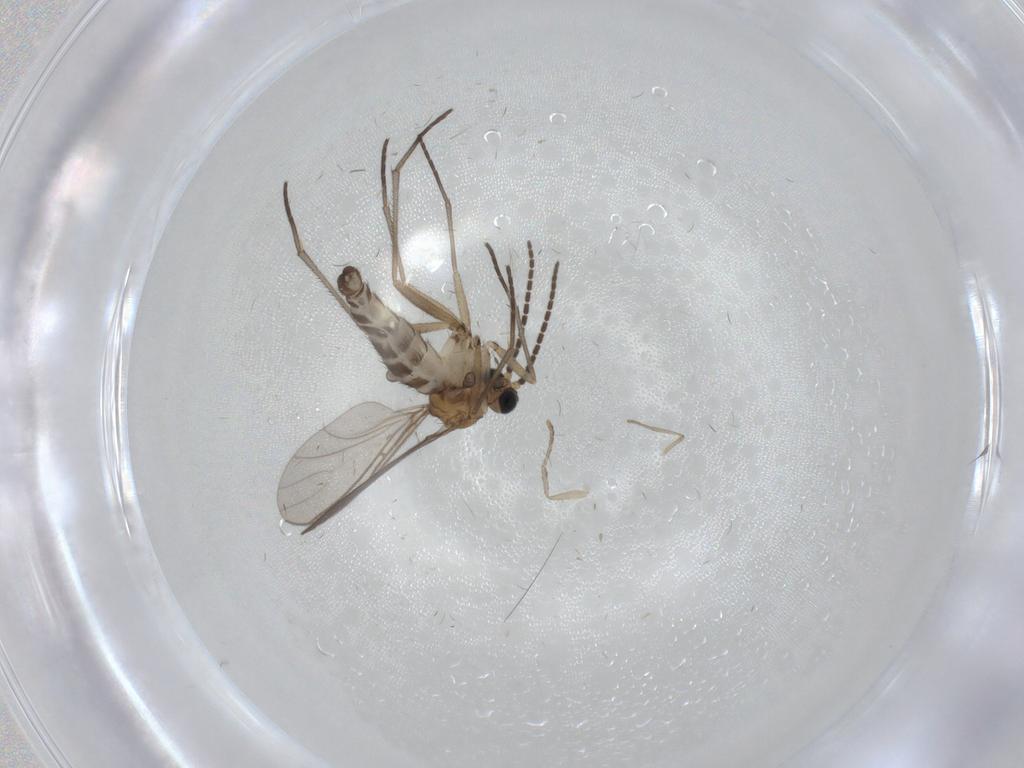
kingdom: Animalia
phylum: Arthropoda
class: Insecta
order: Diptera
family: Sciaridae
